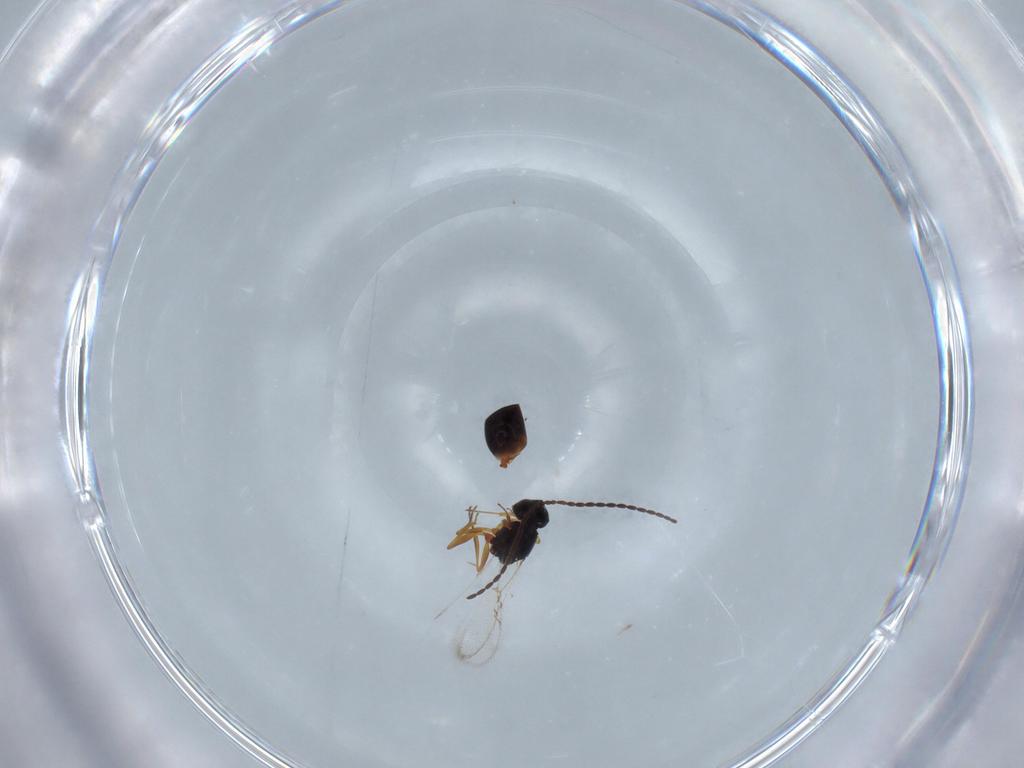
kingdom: Animalia
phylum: Arthropoda
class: Insecta
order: Hymenoptera
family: Figitidae
